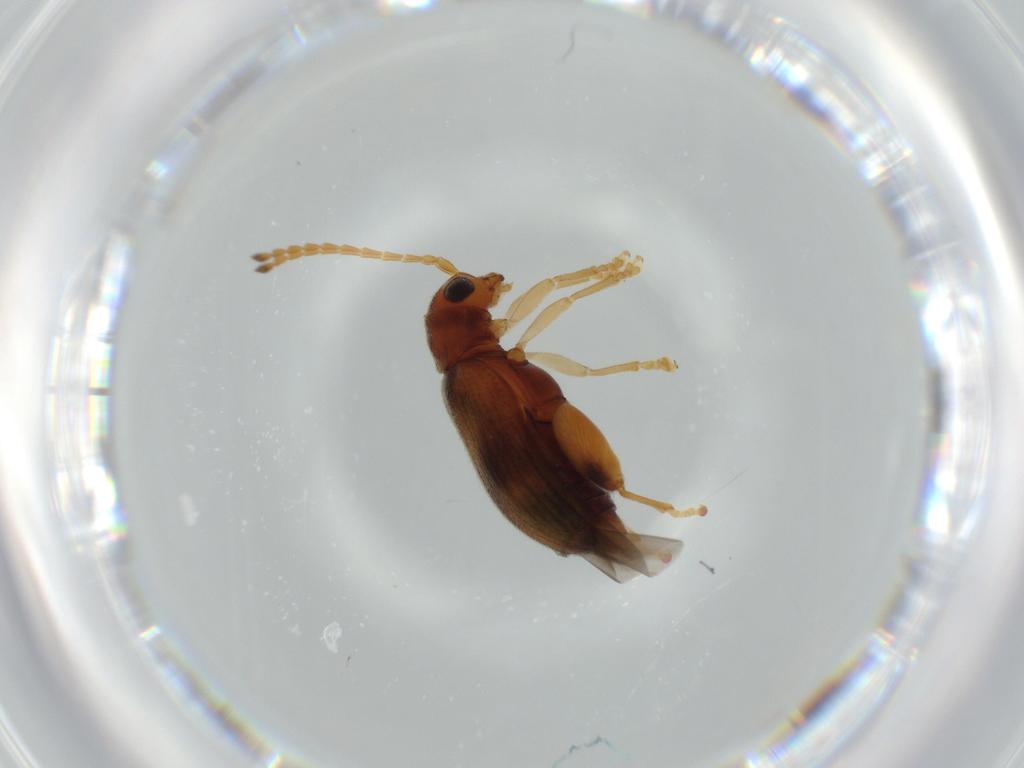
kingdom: Animalia
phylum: Arthropoda
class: Insecta
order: Coleoptera
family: Chrysomelidae
